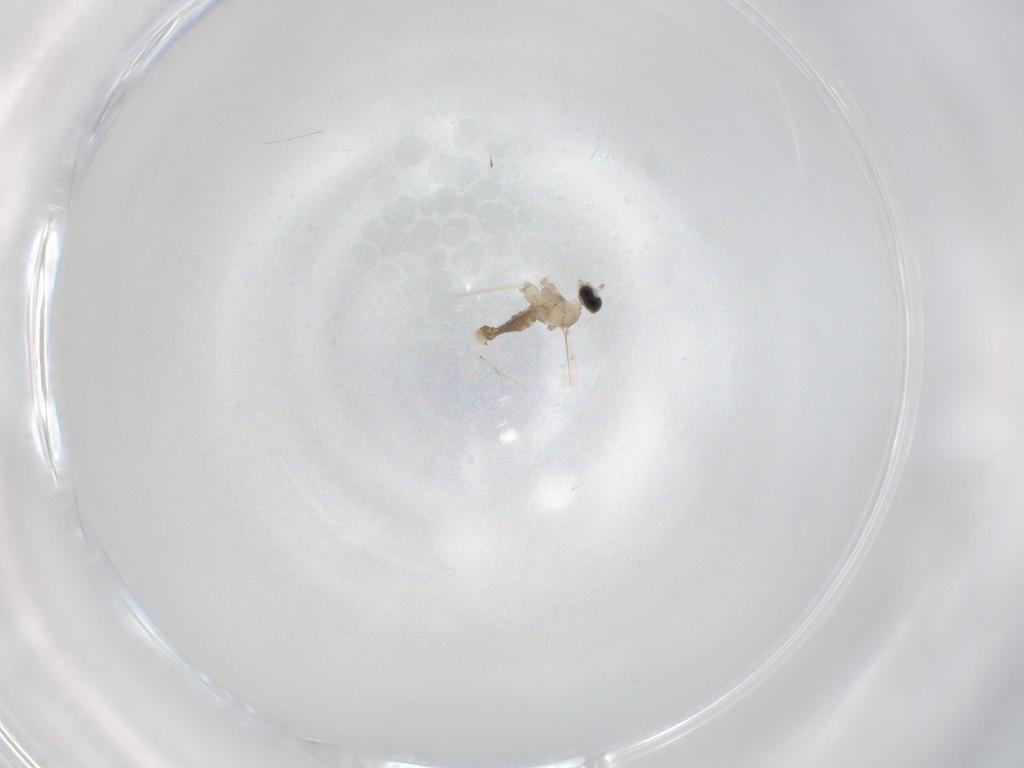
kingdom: Animalia
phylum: Arthropoda
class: Insecta
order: Diptera
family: Cecidomyiidae
